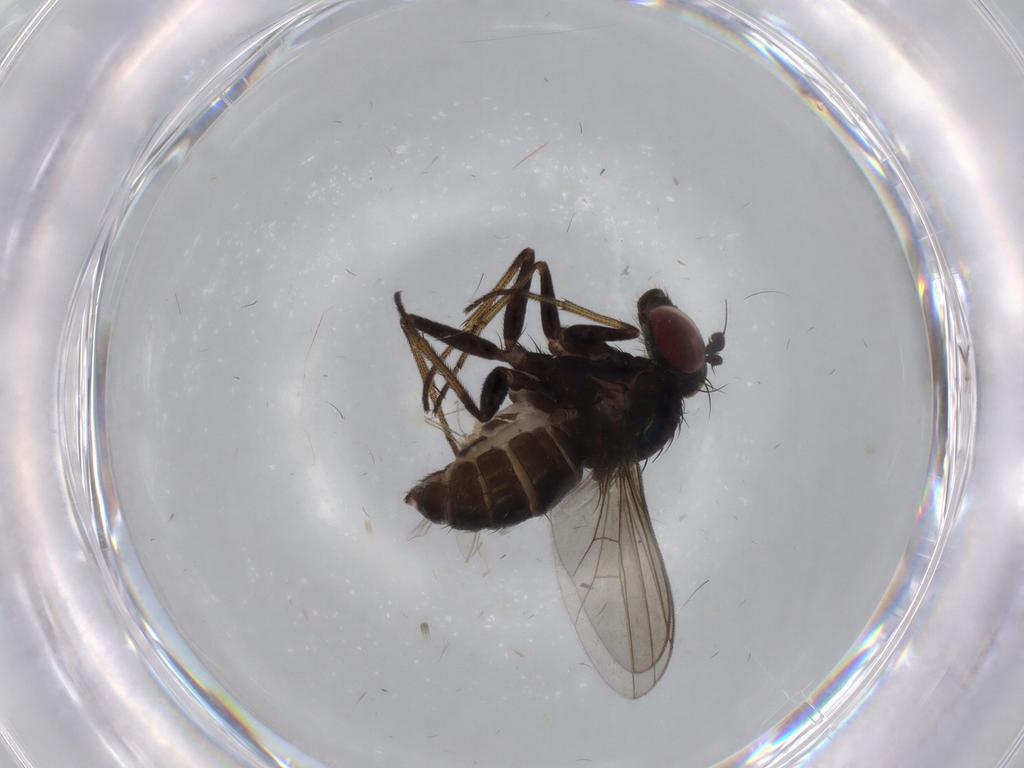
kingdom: Animalia
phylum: Arthropoda
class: Insecta
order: Diptera
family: Dolichopodidae
